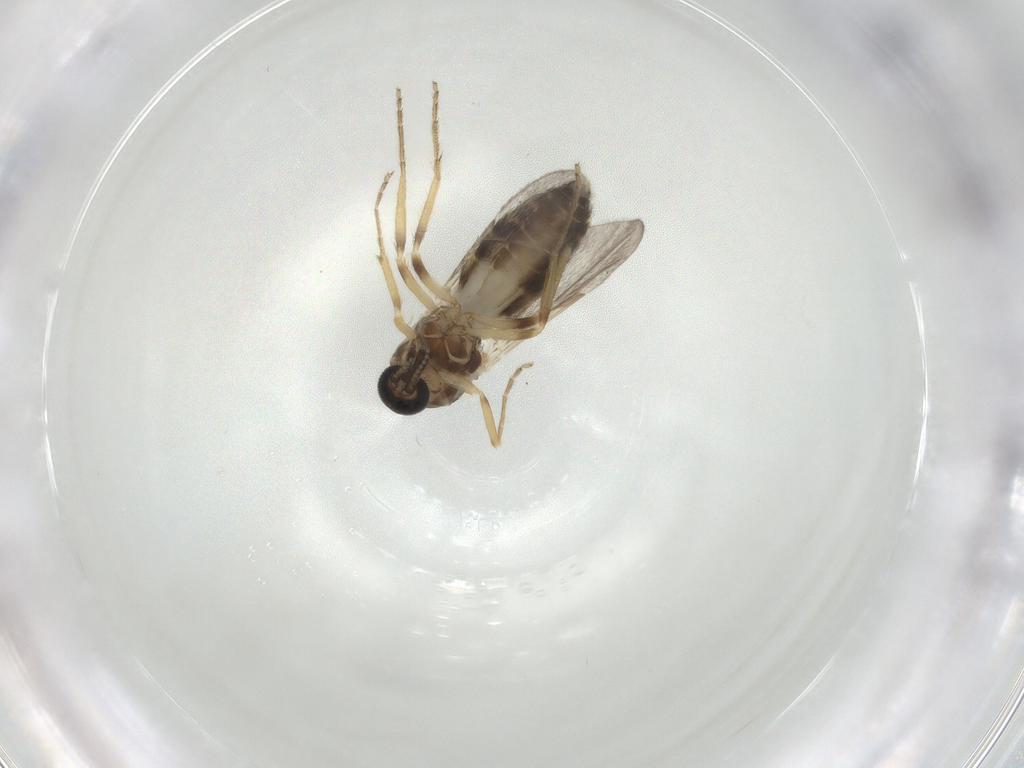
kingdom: Animalia
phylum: Arthropoda
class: Insecta
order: Diptera
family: Ceratopogonidae
